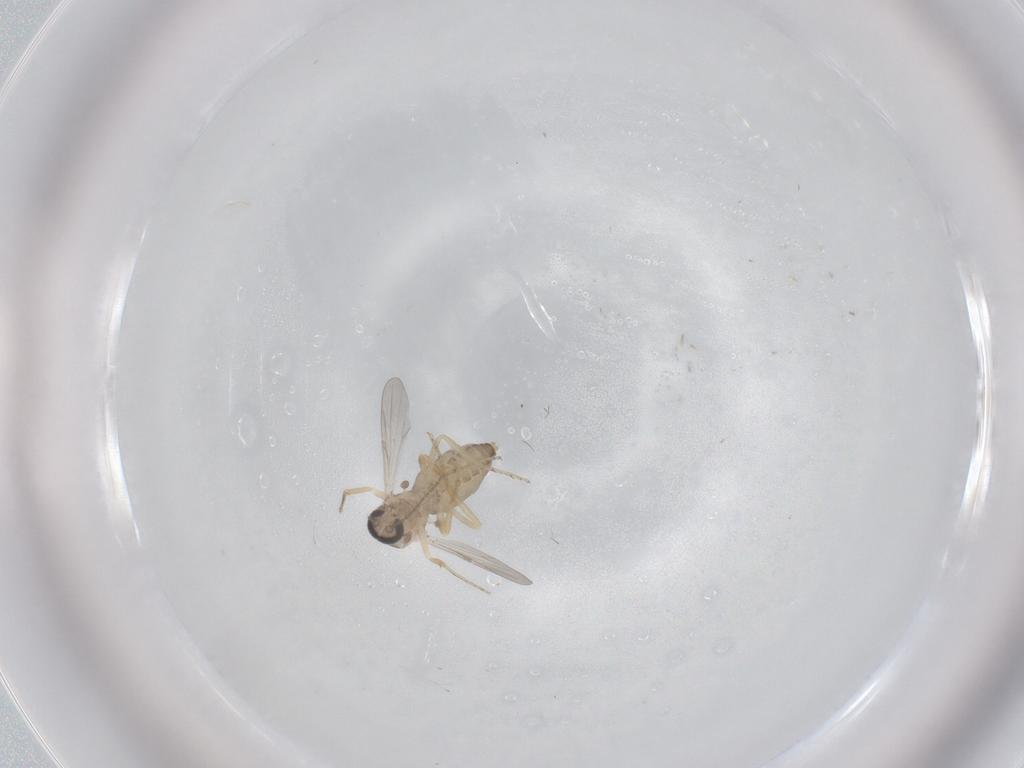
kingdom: Animalia
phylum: Arthropoda
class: Insecta
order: Diptera
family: Ceratopogonidae
